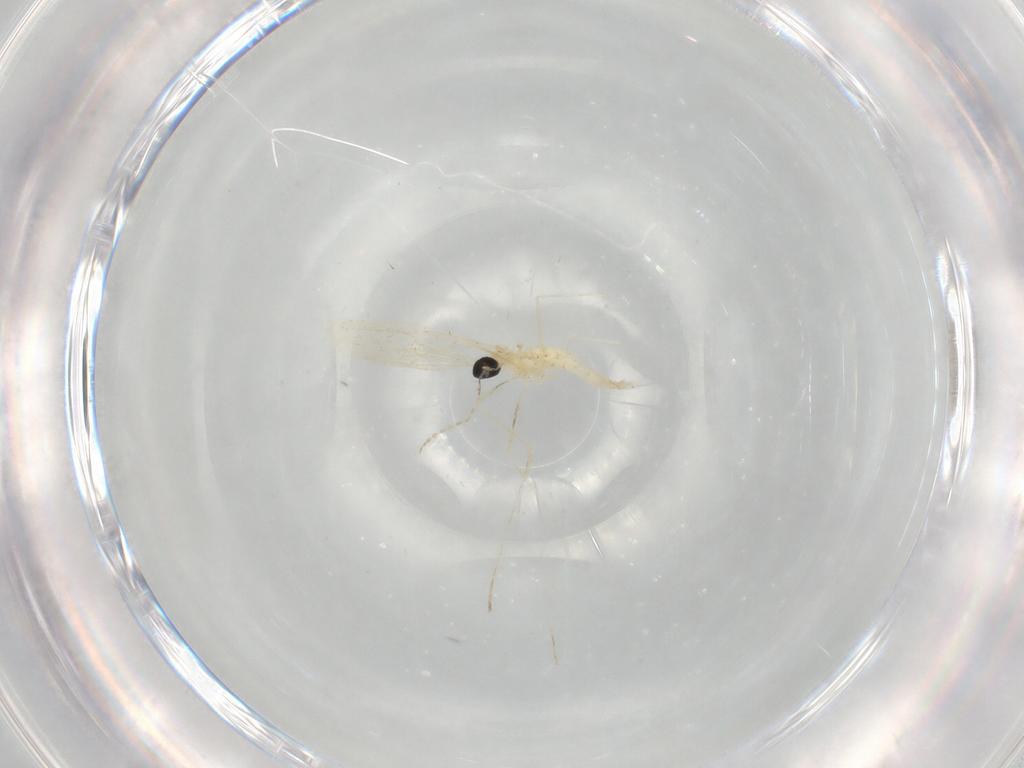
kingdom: Animalia
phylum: Arthropoda
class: Insecta
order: Diptera
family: Cecidomyiidae
